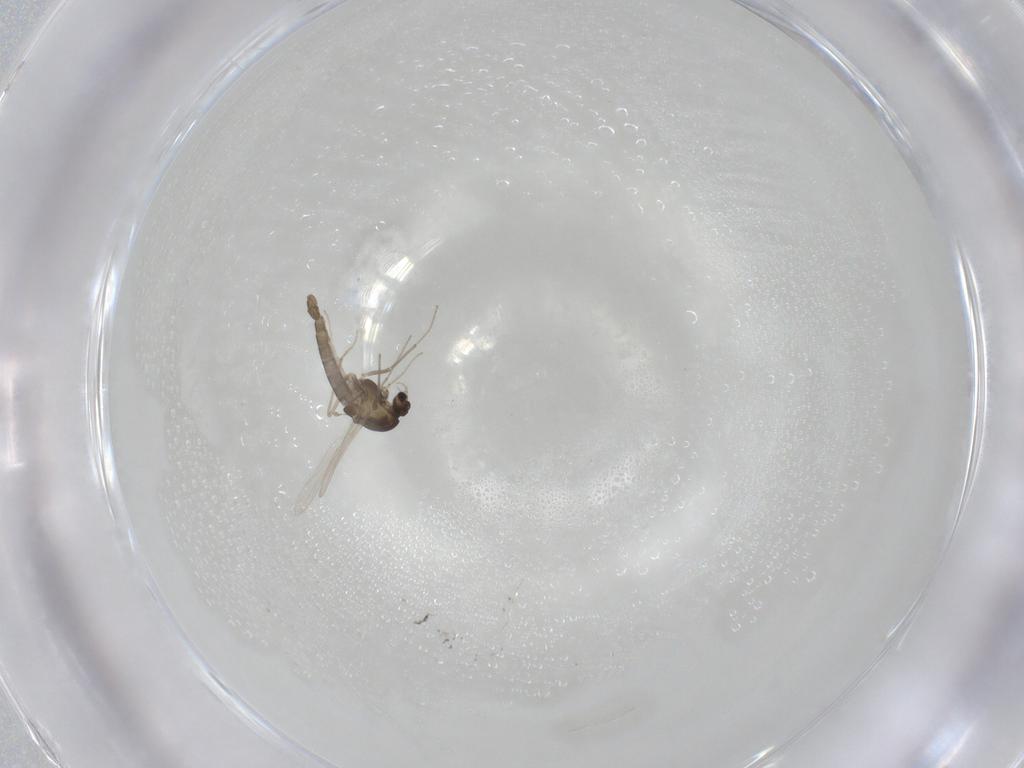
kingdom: Animalia
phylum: Arthropoda
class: Insecta
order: Diptera
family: Chironomidae
